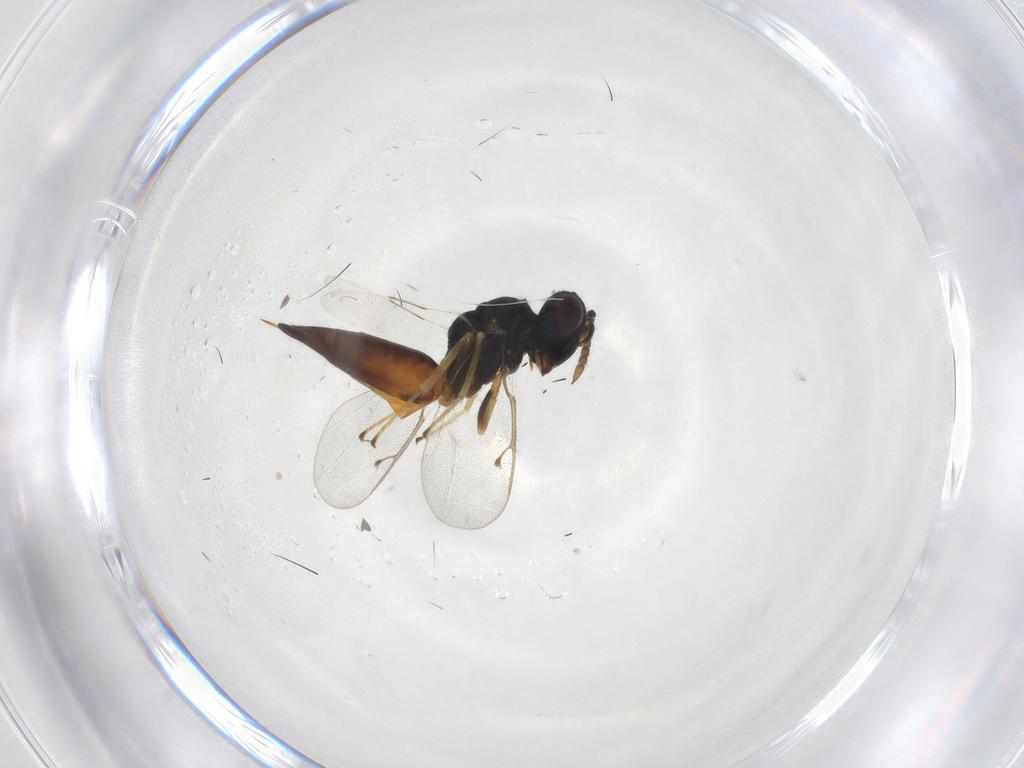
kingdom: Animalia
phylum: Arthropoda
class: Insecta
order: Hymenoptera
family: Pteromalidae
